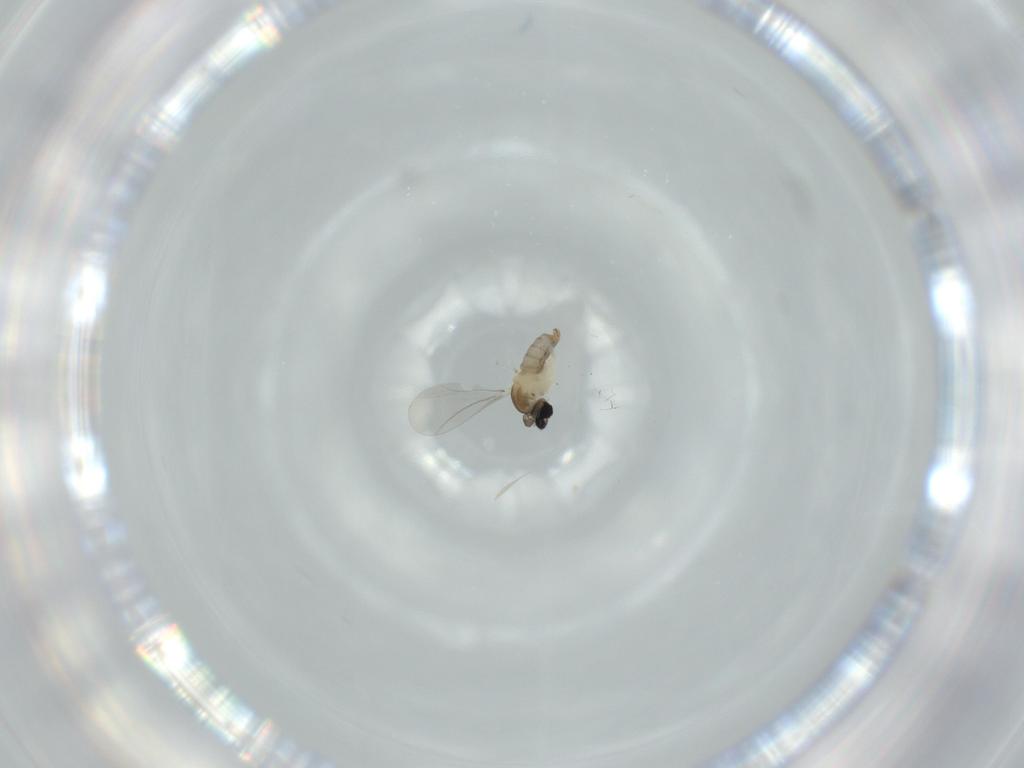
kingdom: Animalia
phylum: Arthropoda
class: Insecta
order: Diptera
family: Cecidomyiidae
